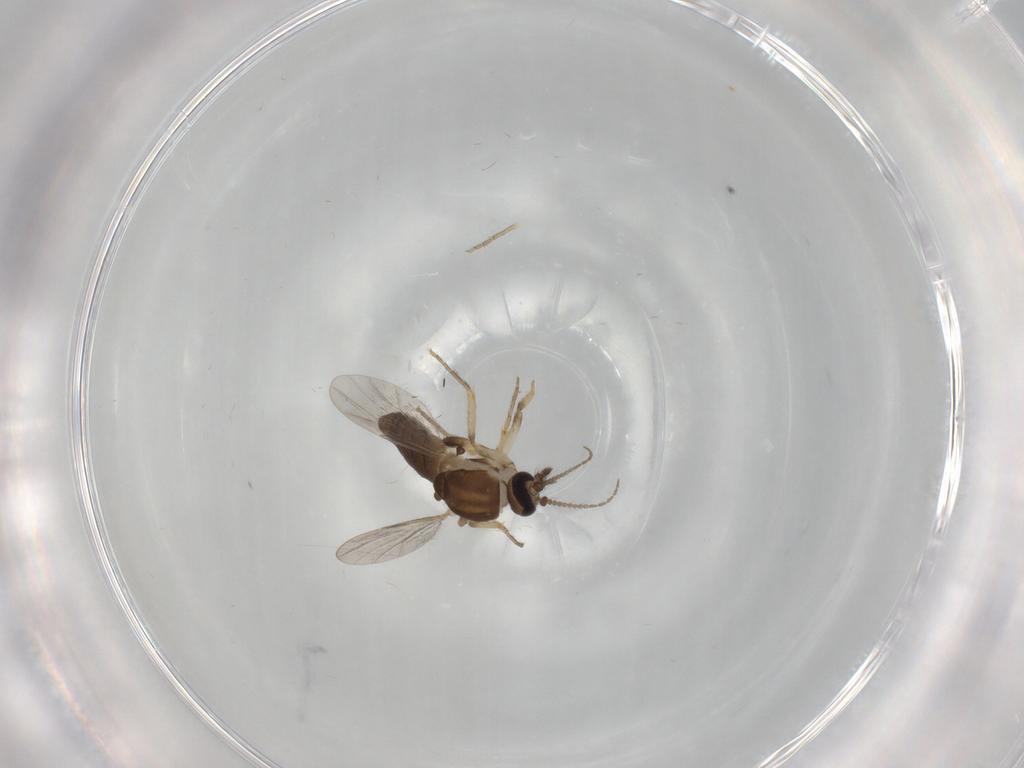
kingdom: Animalia
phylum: Arthropoda
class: Insecta
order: Diptera
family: Ceratopogonidae
